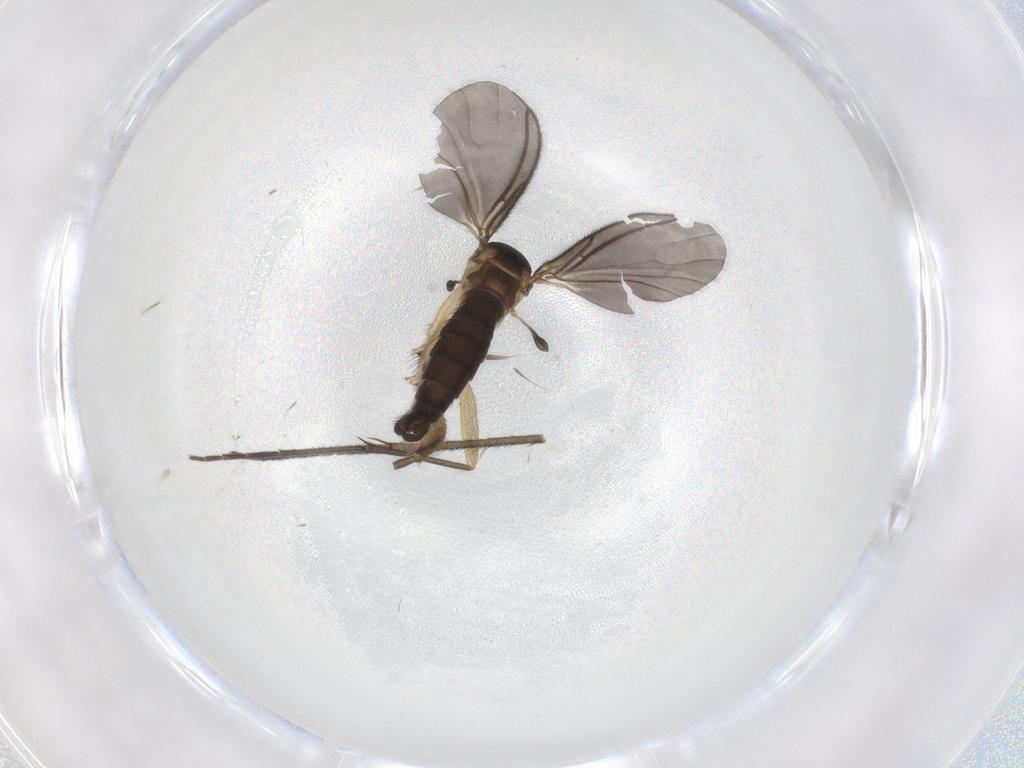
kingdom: Animalia
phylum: Arthropoda
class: Insecta
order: Diptera
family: Sciaridae
